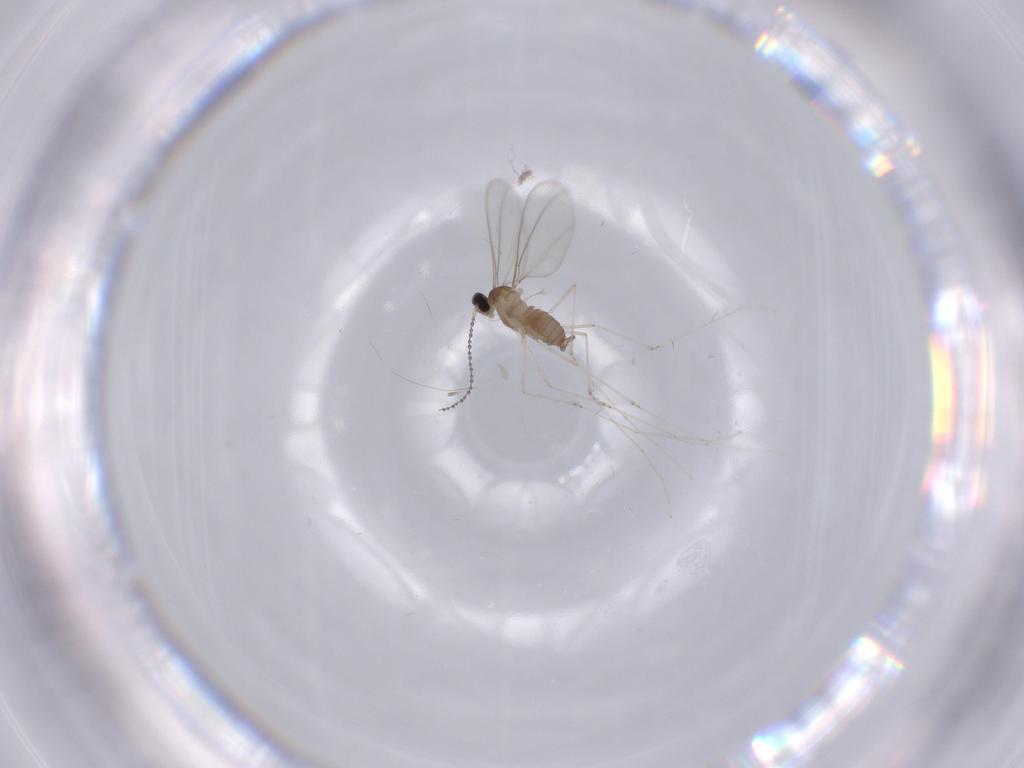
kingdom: Animalia
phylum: Arthropoda
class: Insecta
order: Diptera
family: Cecidomyiidae
